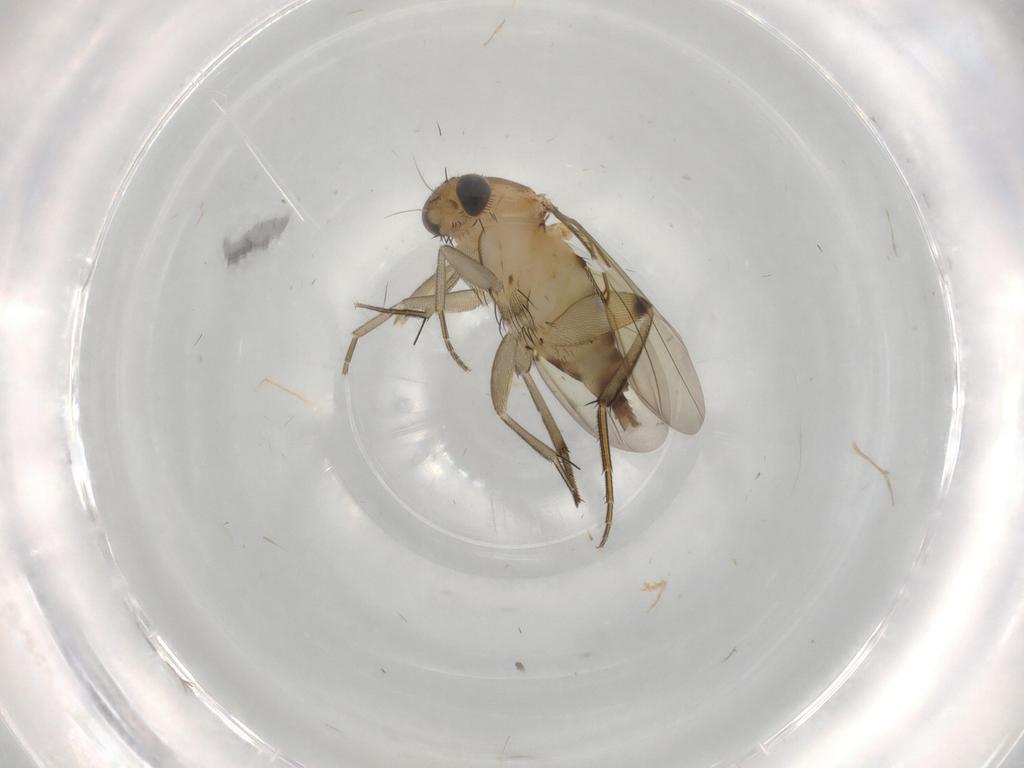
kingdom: Animalia
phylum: Arthropoda
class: Insecta
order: Diptera
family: Phoridae
